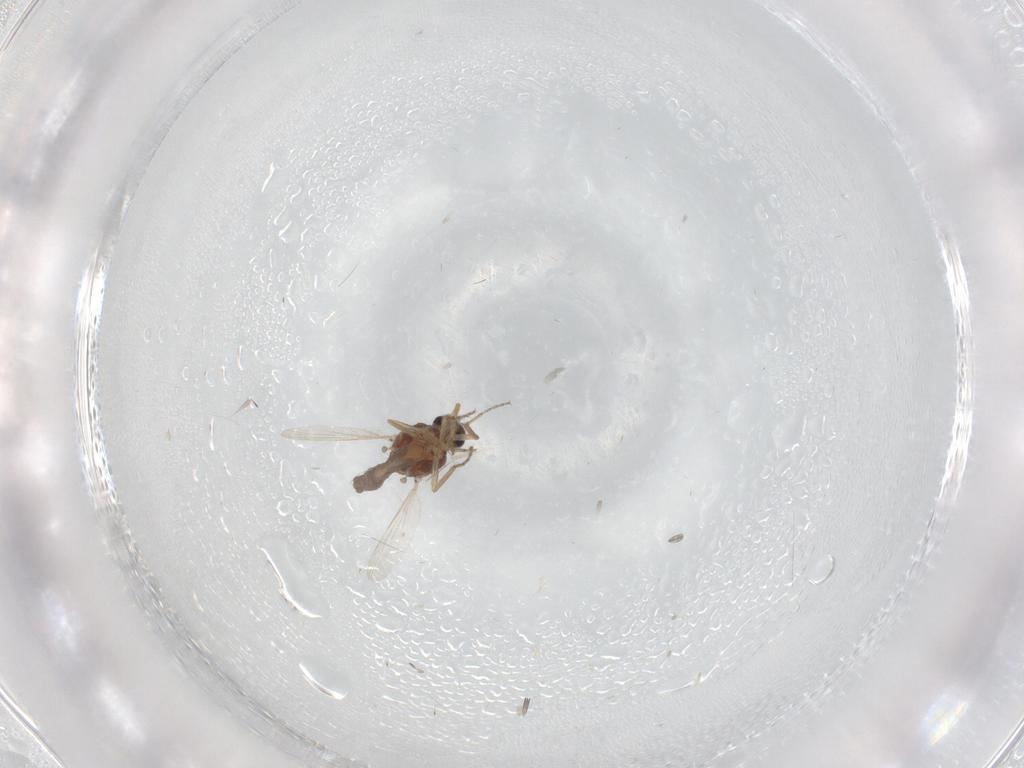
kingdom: Animalia
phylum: Arthropoda
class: Insecta
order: Diptera
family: Ceratopogonidae
